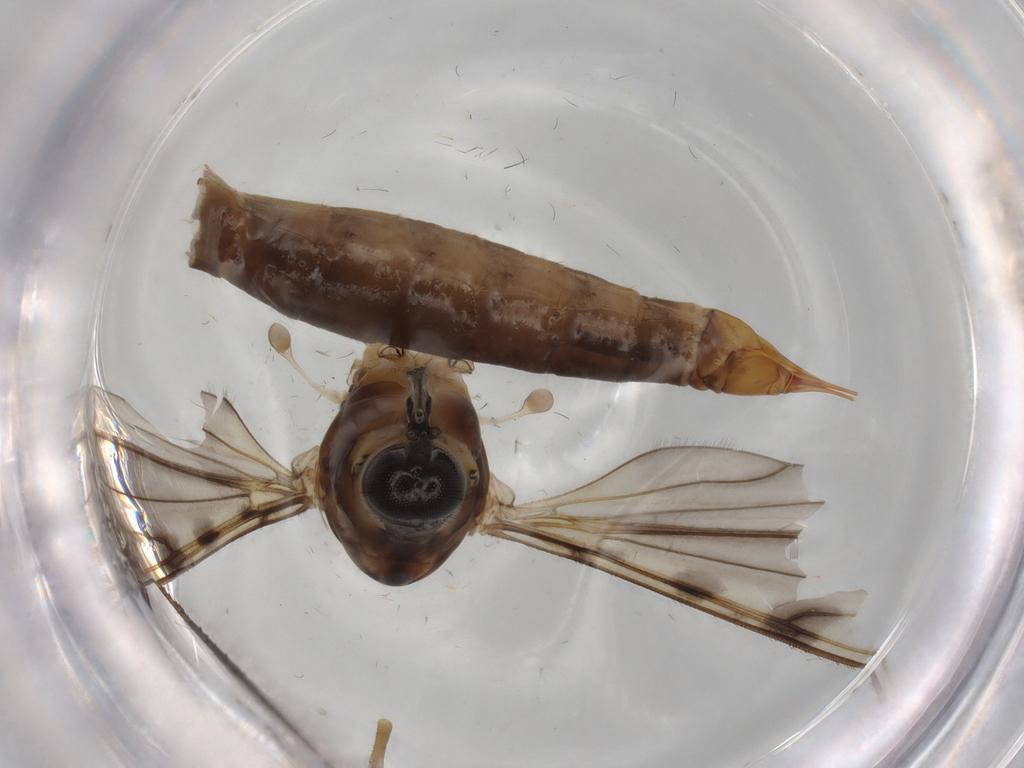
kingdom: Animalia
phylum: Arthropoda
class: Insecta
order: Diptera
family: Limoniidae
